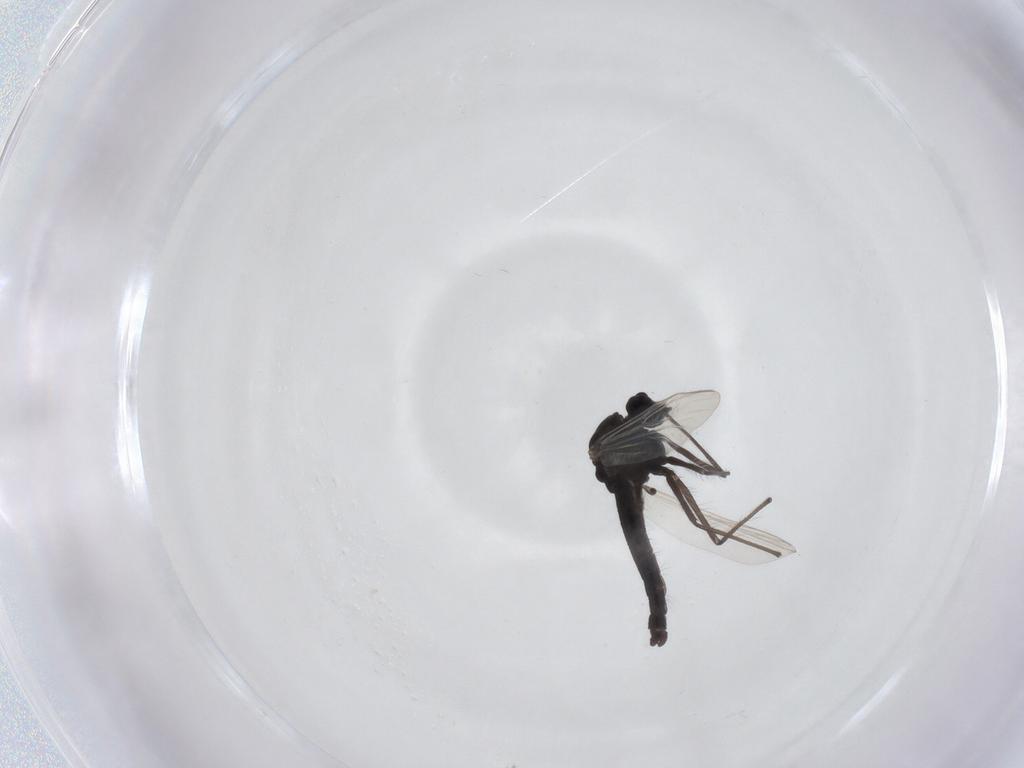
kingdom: Animalia
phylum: Arthropoda
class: Insecta
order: Diptera
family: Chironomidae
